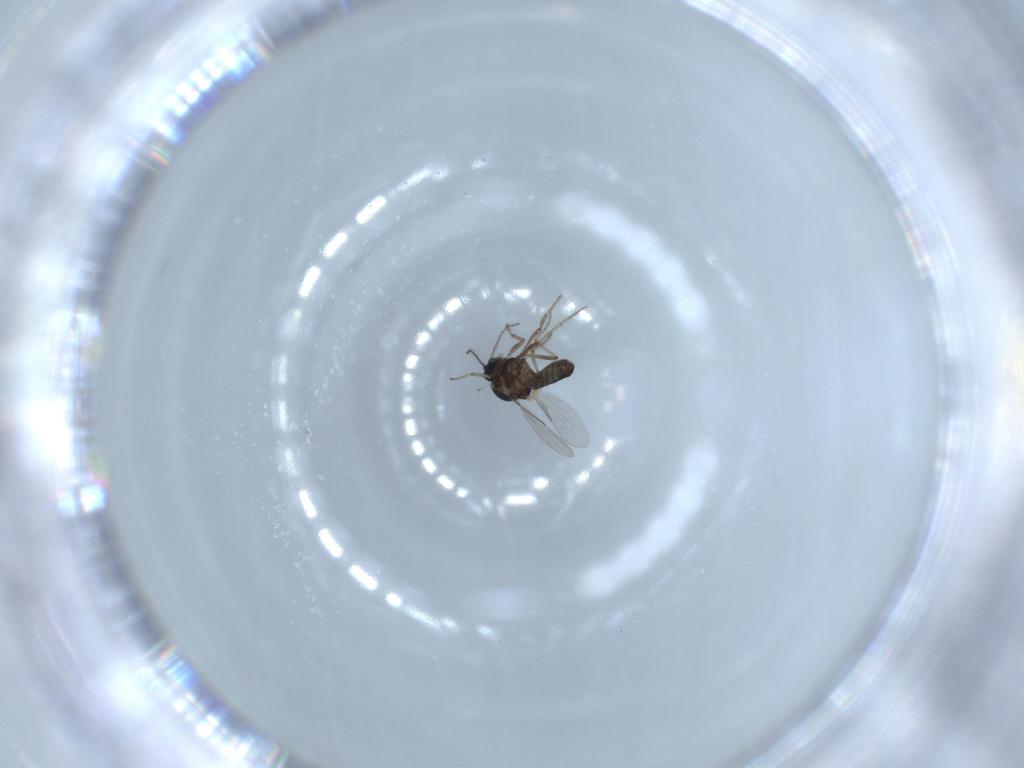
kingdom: Animalia
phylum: Arthropoda
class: Insecta
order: Diptera
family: Ceratopogonidae
